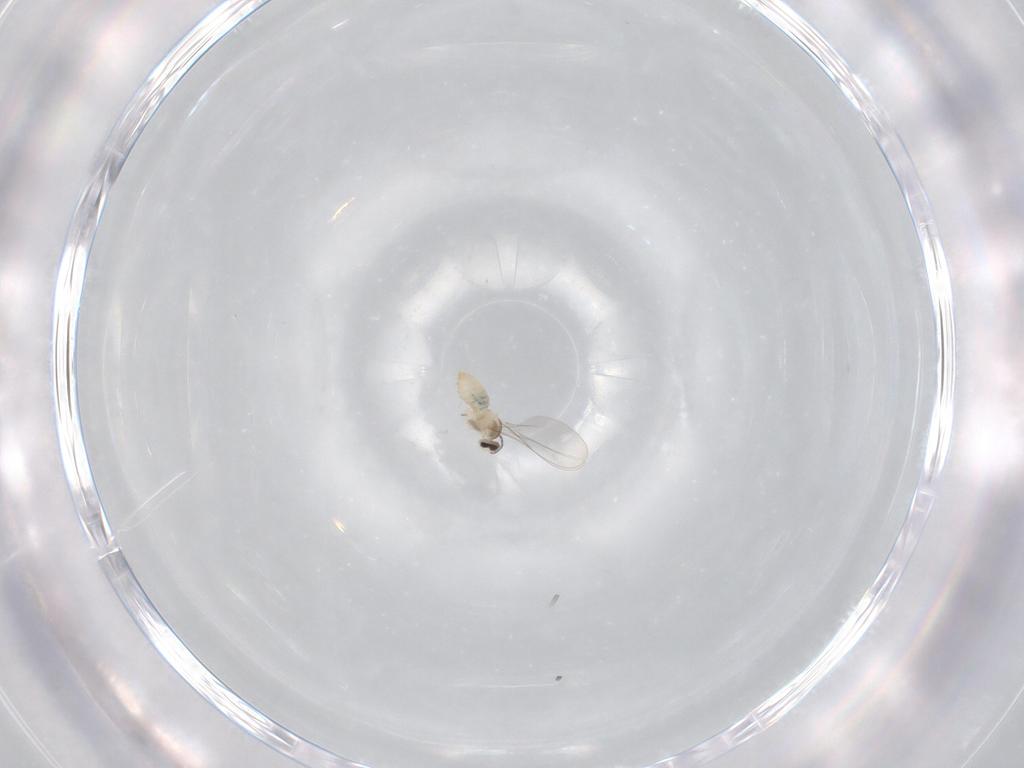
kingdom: Animalia
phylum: Arthropoda
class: Insecta
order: Diptera
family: Cecidomyiidae
